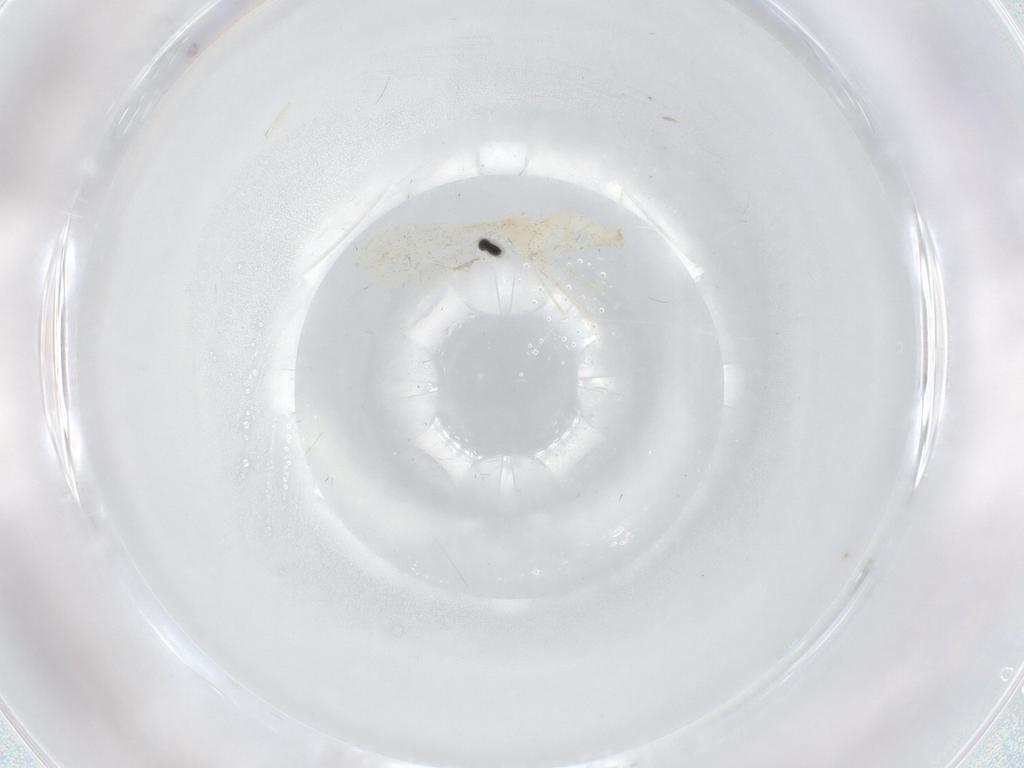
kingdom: Animalia
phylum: Arthropoda
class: Insecta
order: Diptera
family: Cecidomyiidae
